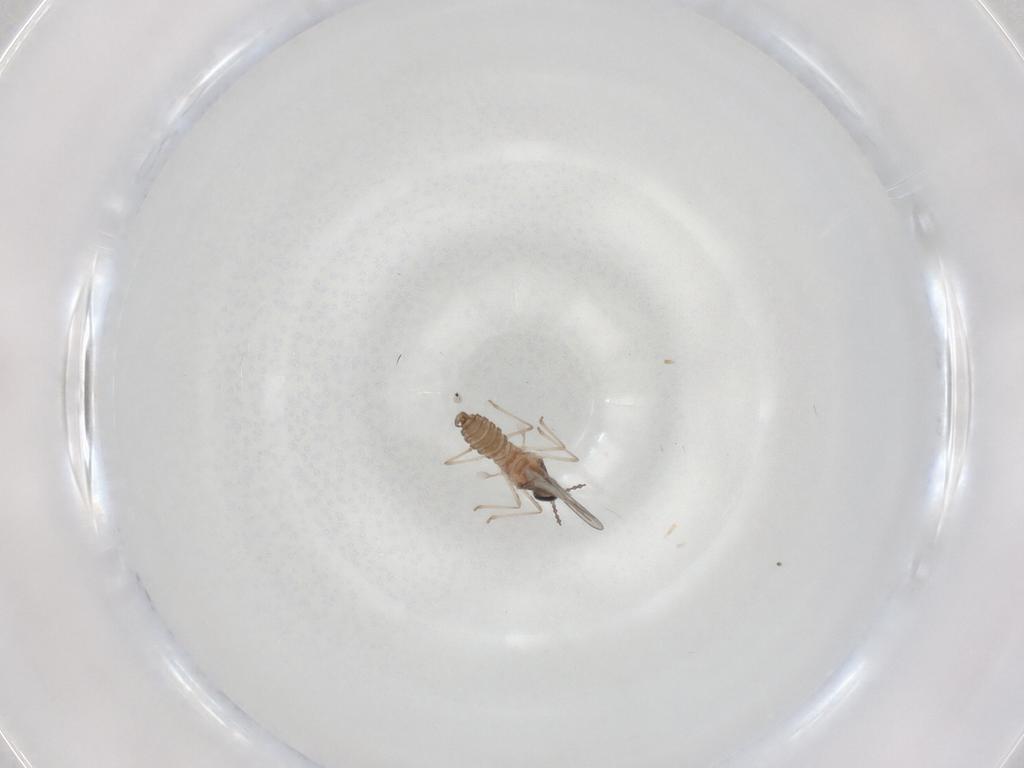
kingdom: Animalia
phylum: Arthropoda
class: Insecta
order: Diptera
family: Cecidomyiidae
